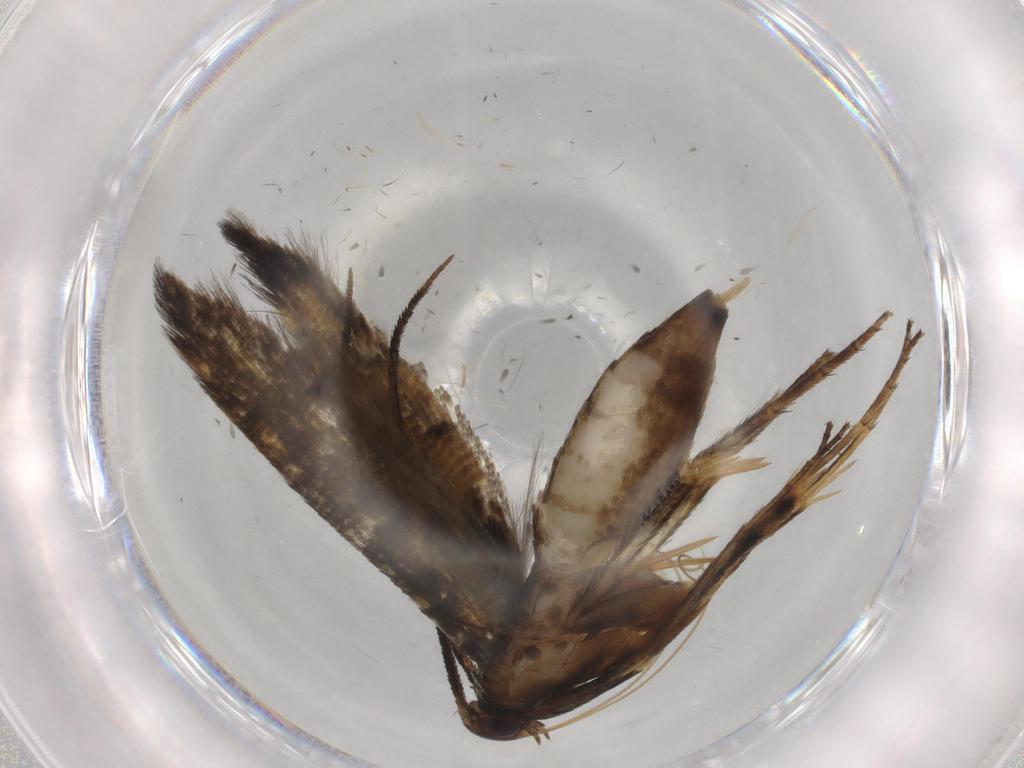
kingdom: Animalia
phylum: Arthropoda
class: Insecta
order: Lepidoptera
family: Heliodinidae
